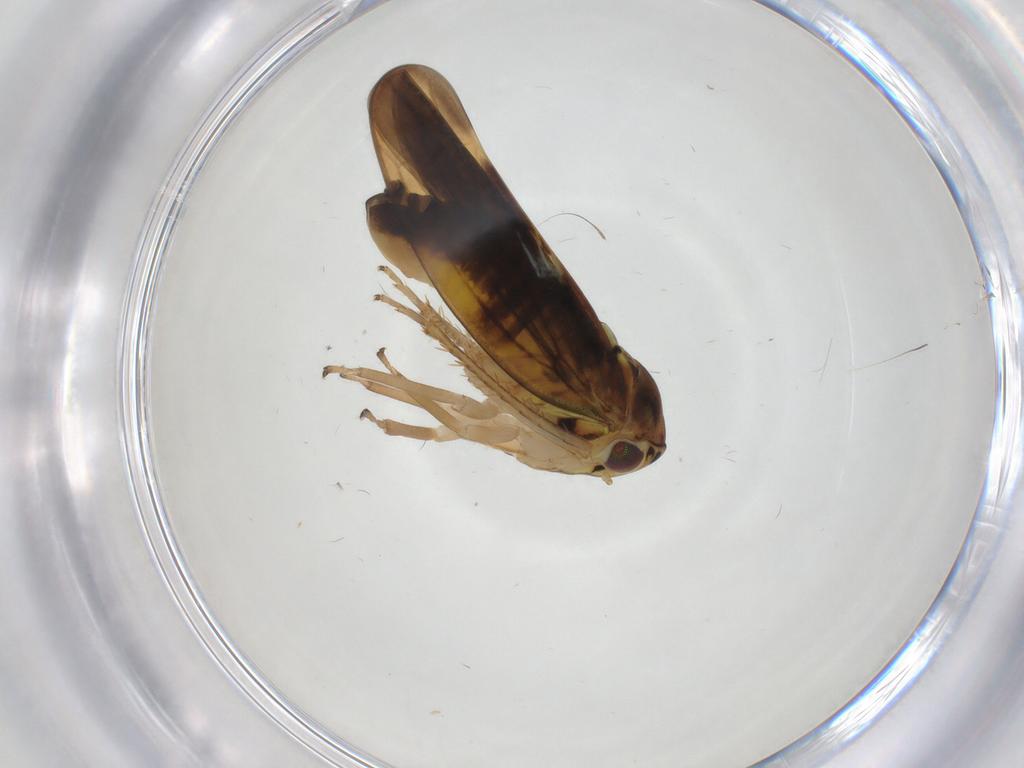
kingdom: Animalia
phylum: Arthropoda
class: Insecta
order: Hemiptera
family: Cicadellidae
